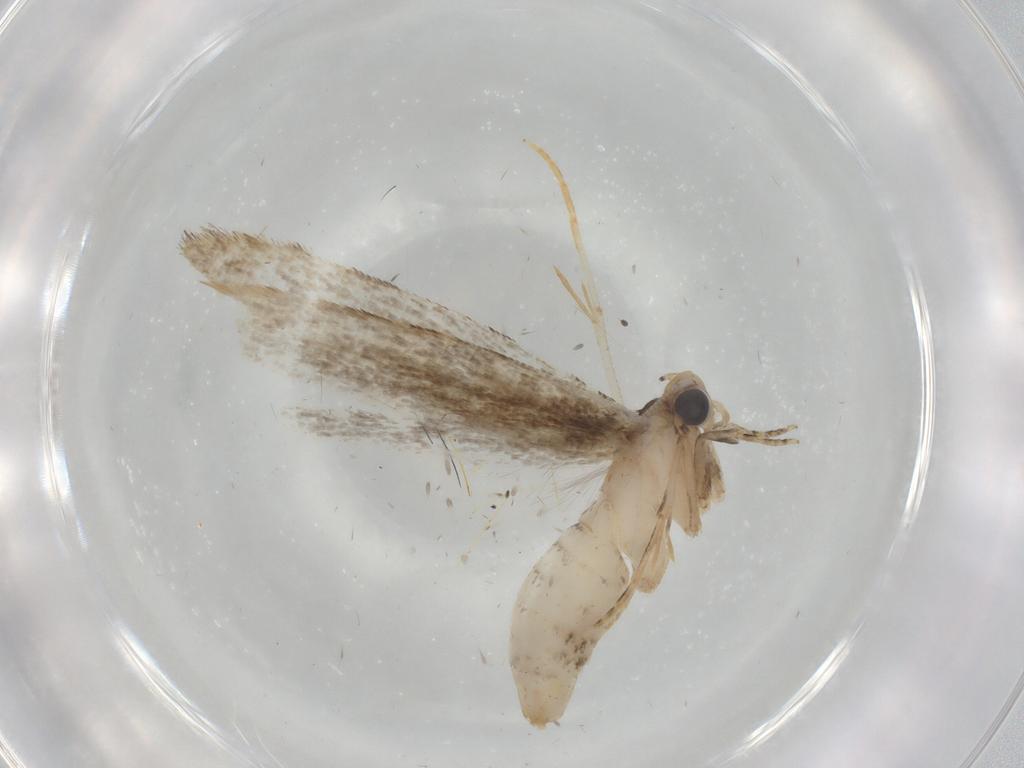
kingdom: Animalia
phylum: Arthropoda
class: Insecta
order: Lepidoptera
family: Tineidae
